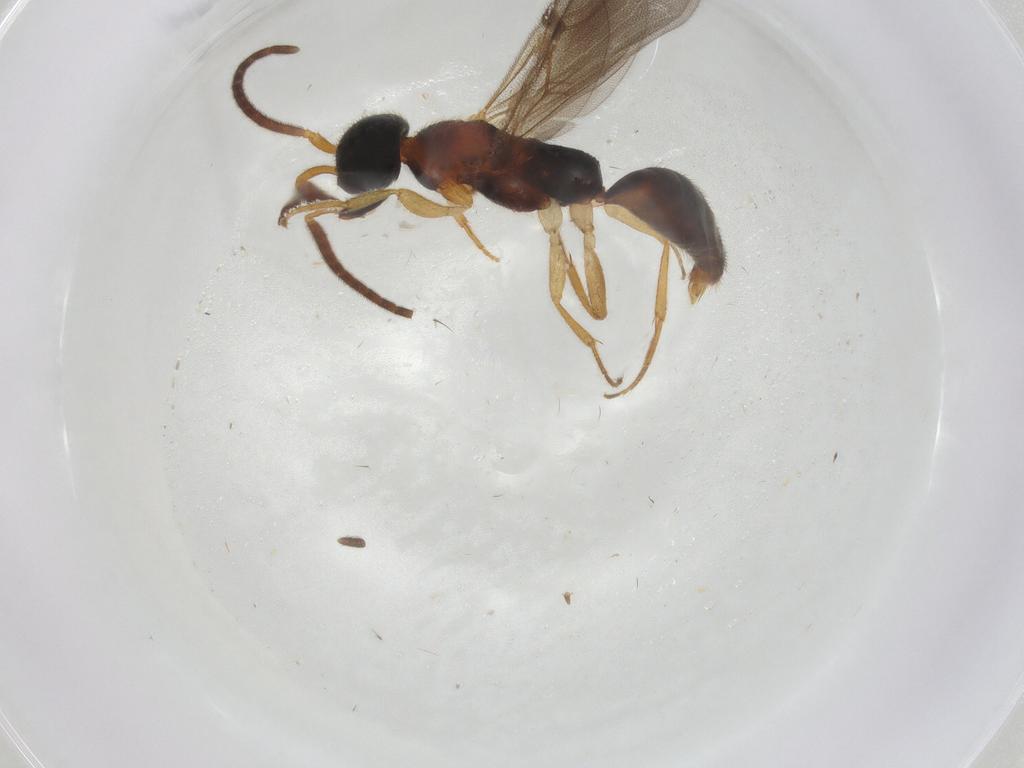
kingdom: Animalia
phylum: Arthropoda
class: Insecta
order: Hymenoptera
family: Bethylidae
